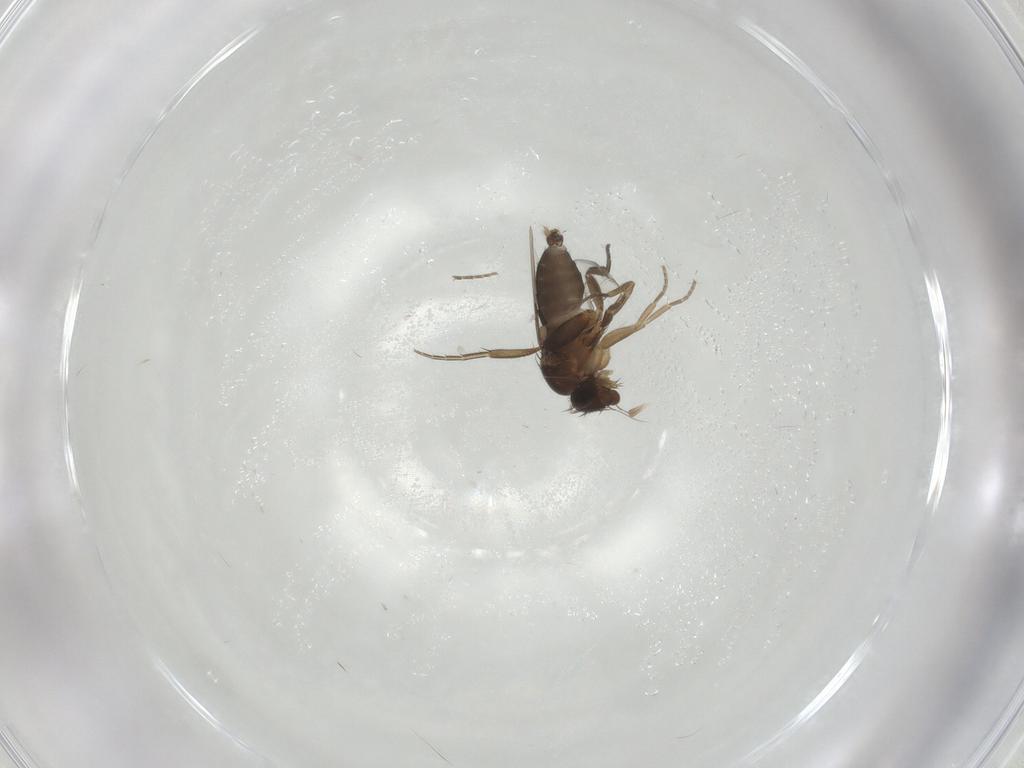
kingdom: Animalia
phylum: Arthropoda
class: Insecta
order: Diptera
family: Phoridae
